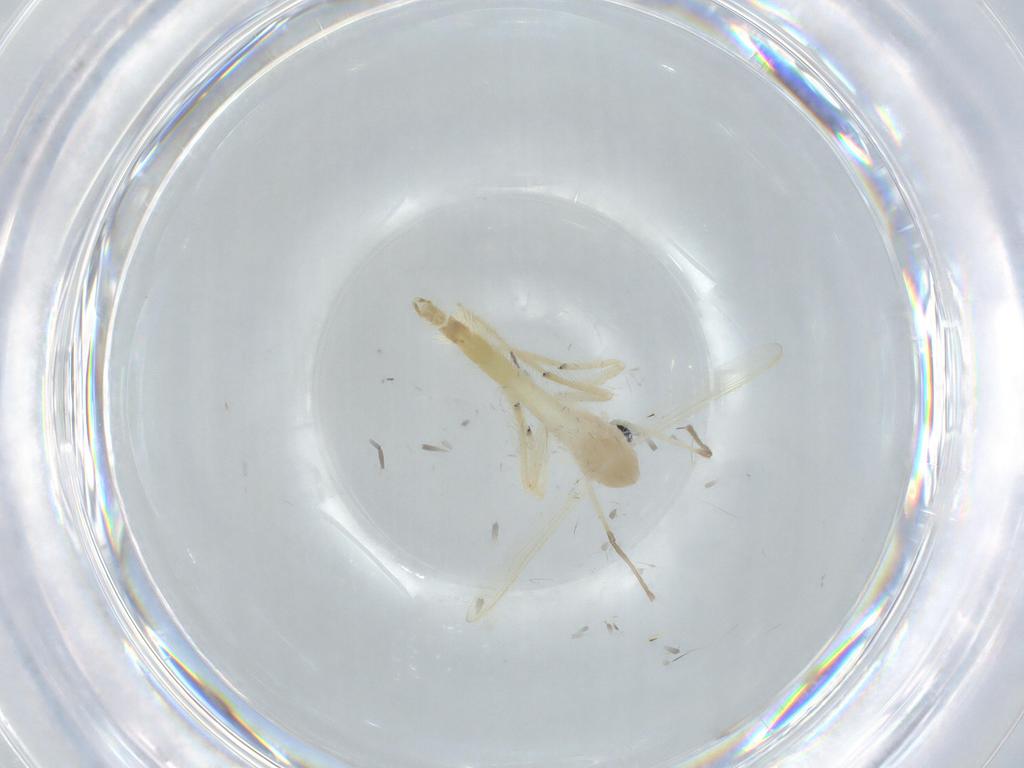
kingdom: Animalia
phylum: Arthropoda
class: Insecta
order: Diptera
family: Chironomidae
